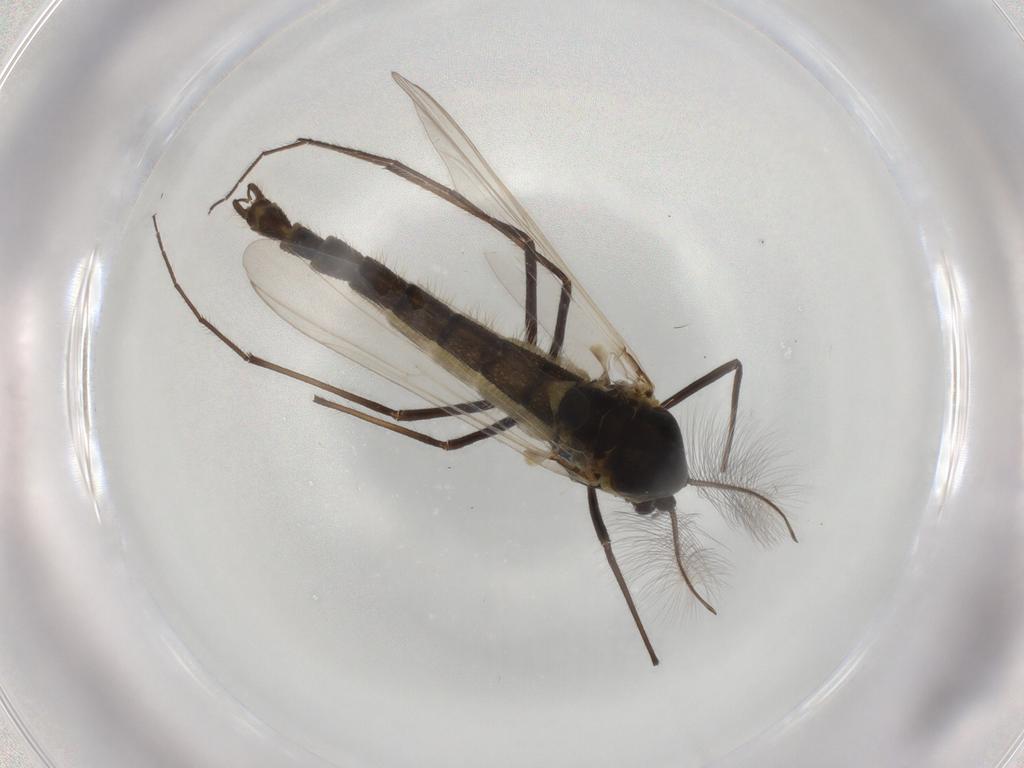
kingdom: Animalia
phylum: Arthropoda
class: Insecta
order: Diptera
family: Chironomidae
